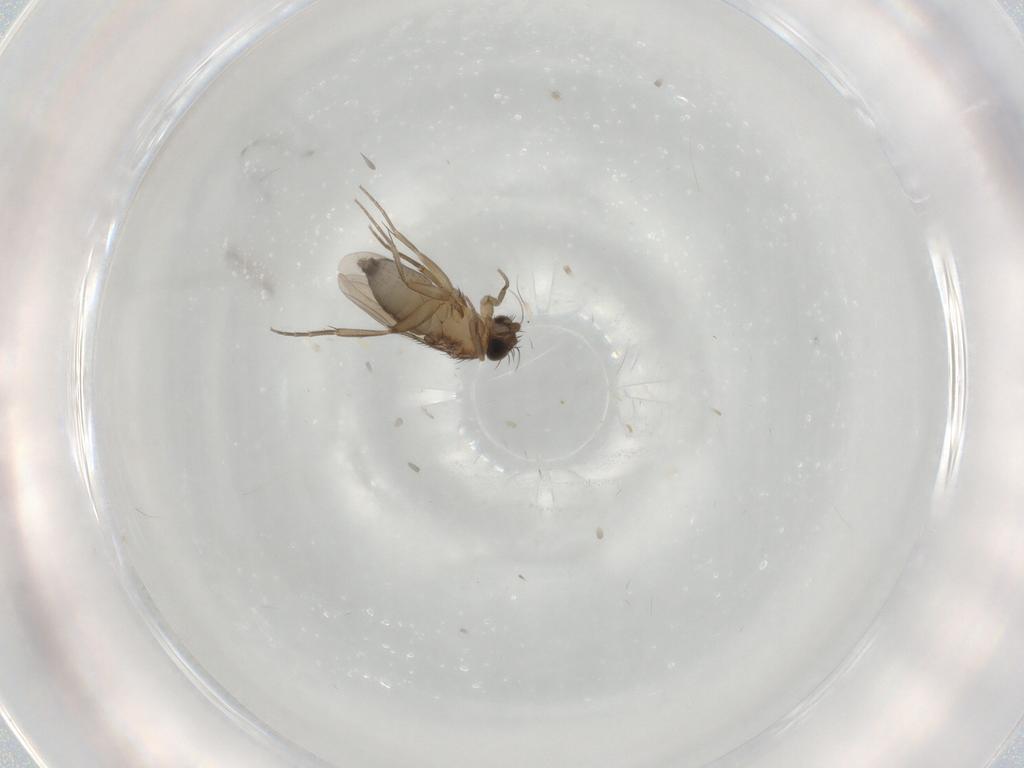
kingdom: Animalia
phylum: Arthropoda
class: Insecta
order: Diptera
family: Phoridae
